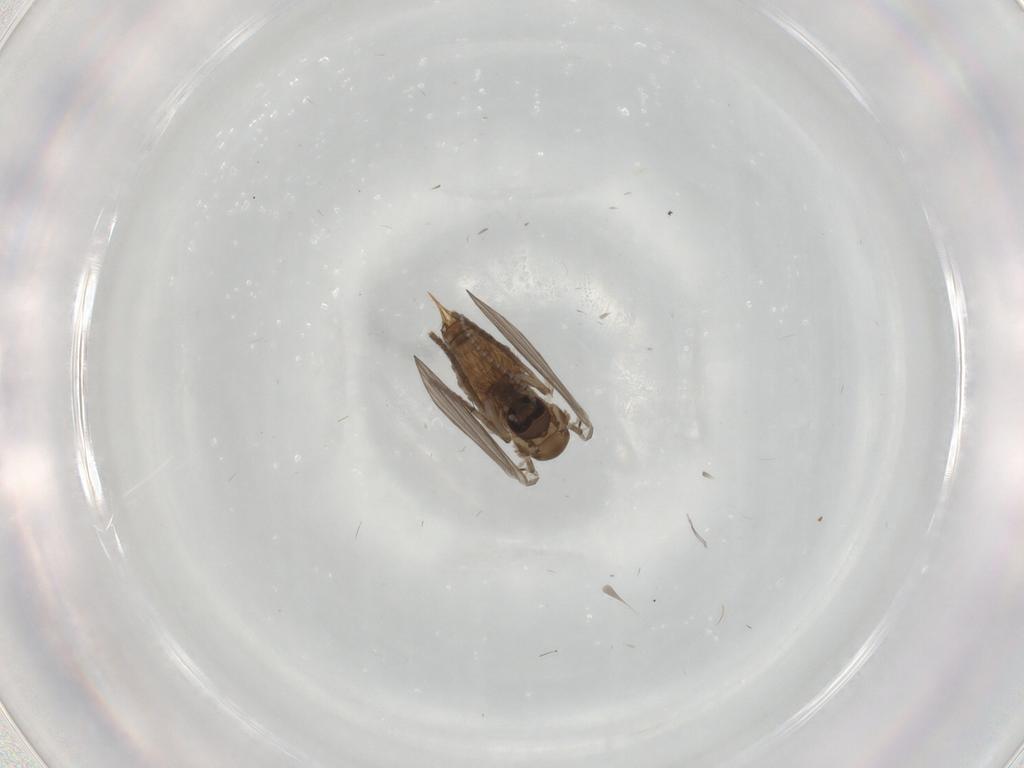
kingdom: Animalia
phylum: Arthropoda
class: Insecta
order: Diptera
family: Psychodidae
